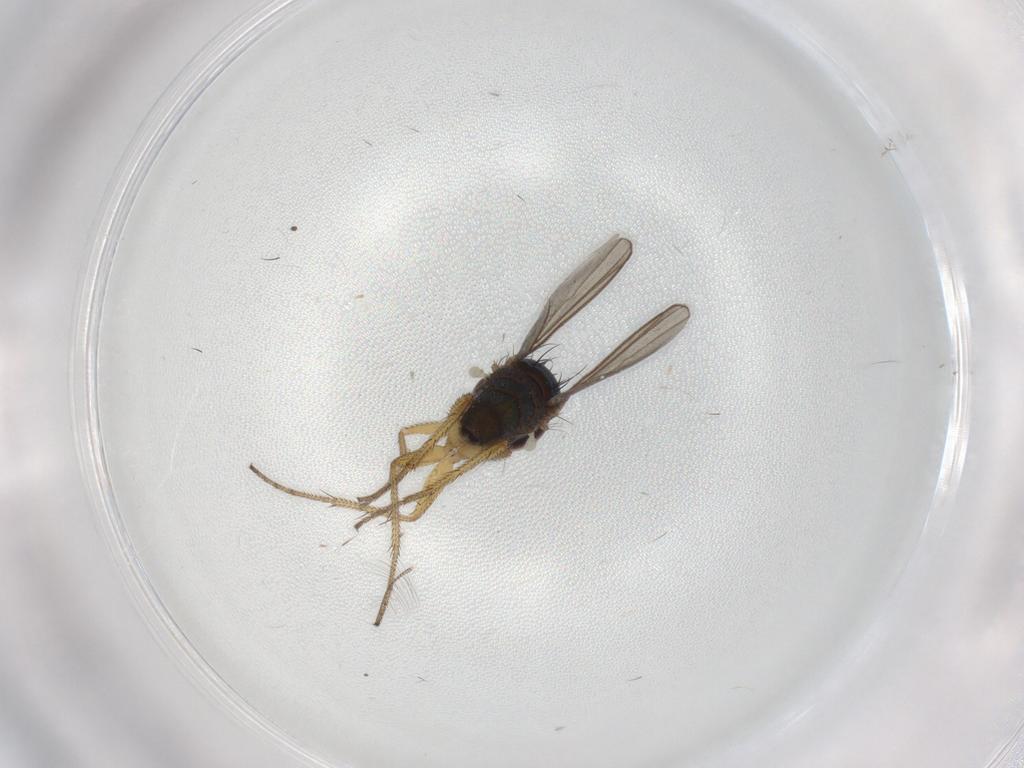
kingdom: Animalia
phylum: Arthropoda
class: Insecta
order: Diptera
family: Dolichopodidae
